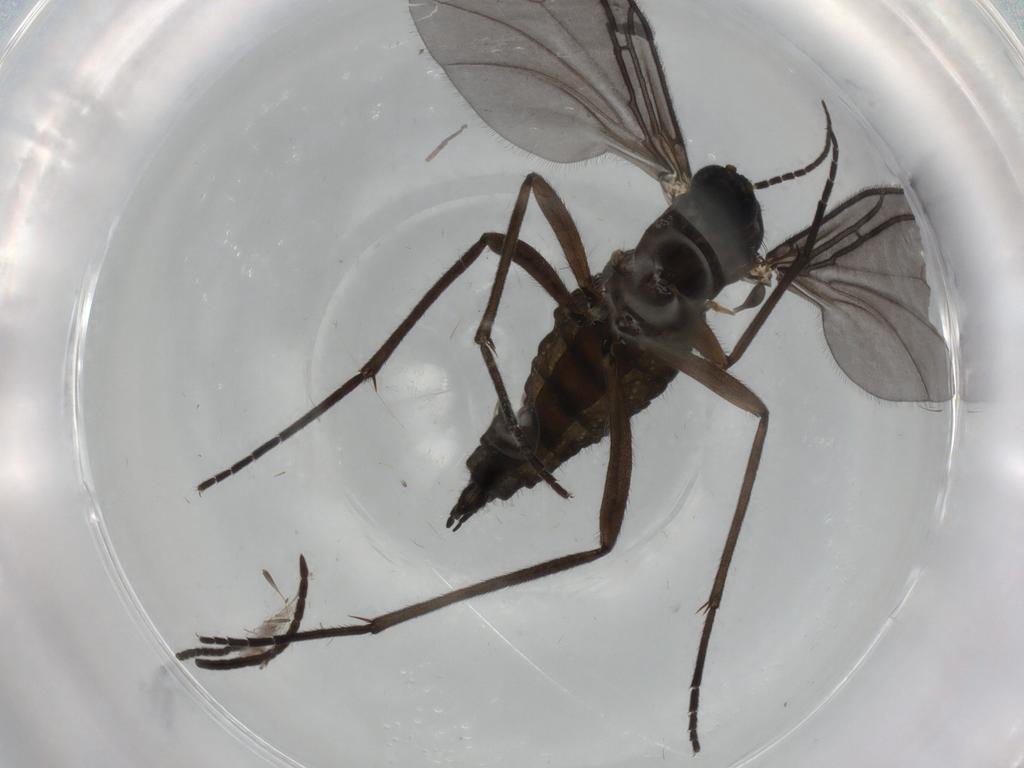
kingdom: Animalia
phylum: Arthropoda
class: Insecta
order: Diptera
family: Sciaridae
